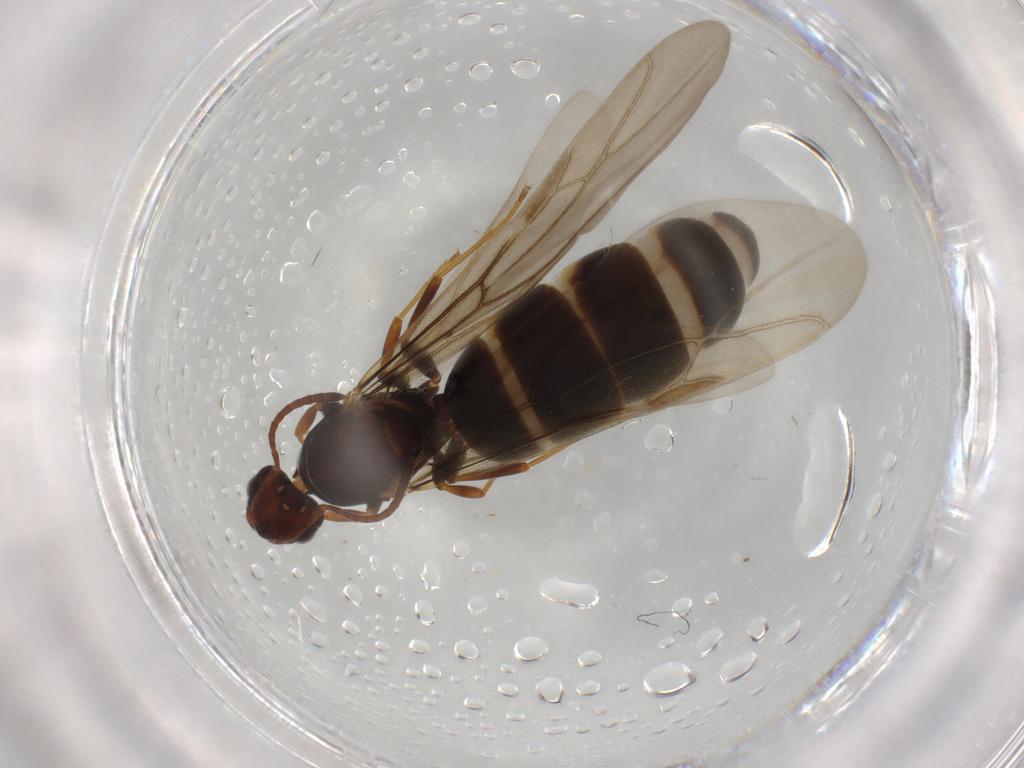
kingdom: Animalia
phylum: Arthropoda
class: Insecta
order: Hymenoptera
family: Formicidae
